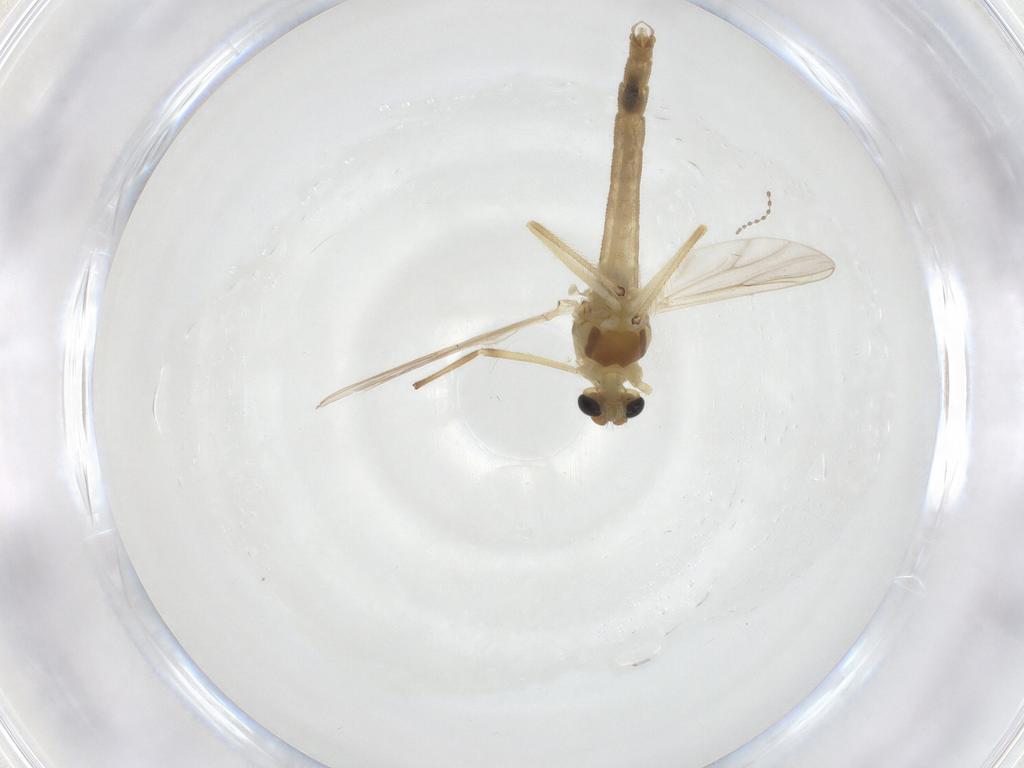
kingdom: Animalia
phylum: Arthropoda
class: Insecta
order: Diptera
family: Chironomidae
